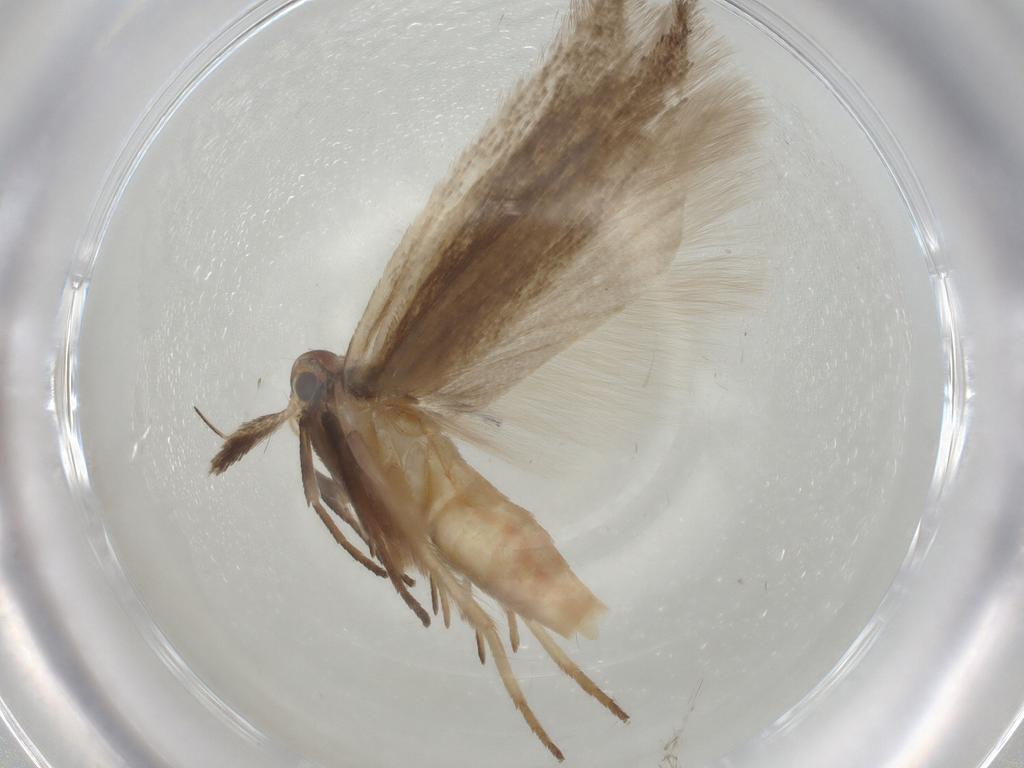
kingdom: Animalia
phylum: Arthropoda
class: Insecta
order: Lepidoptera
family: Gelechiidae
